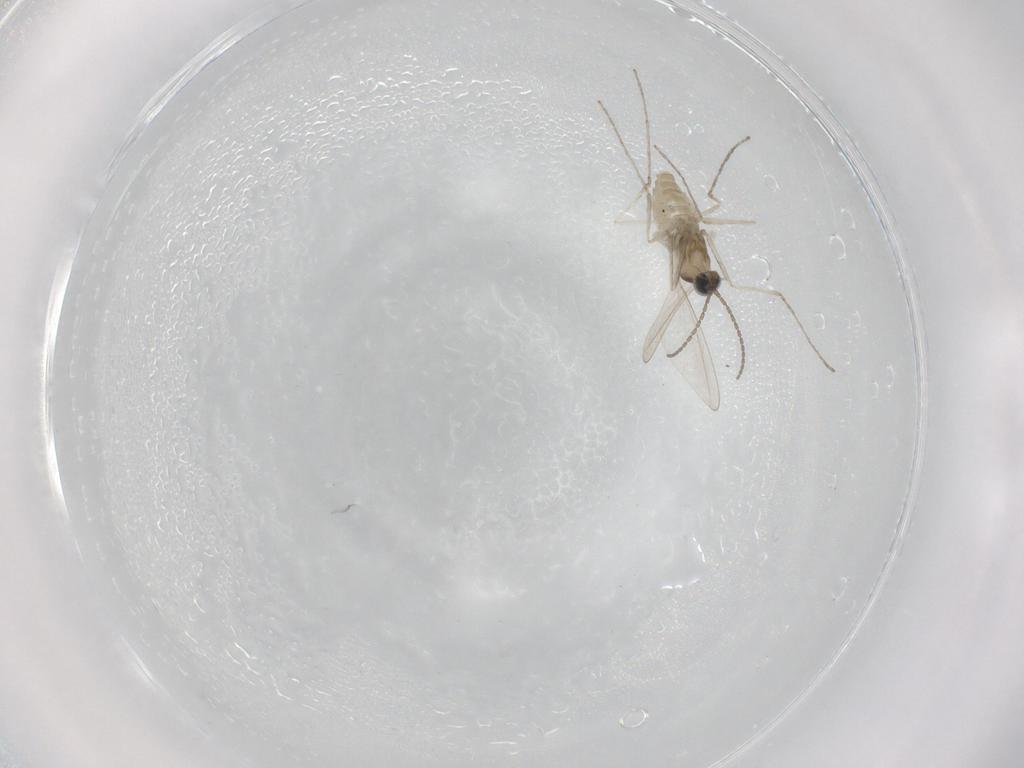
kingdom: Animalia
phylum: Arthropoda
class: Insecta
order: Diptera
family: Cecidomyiidae
